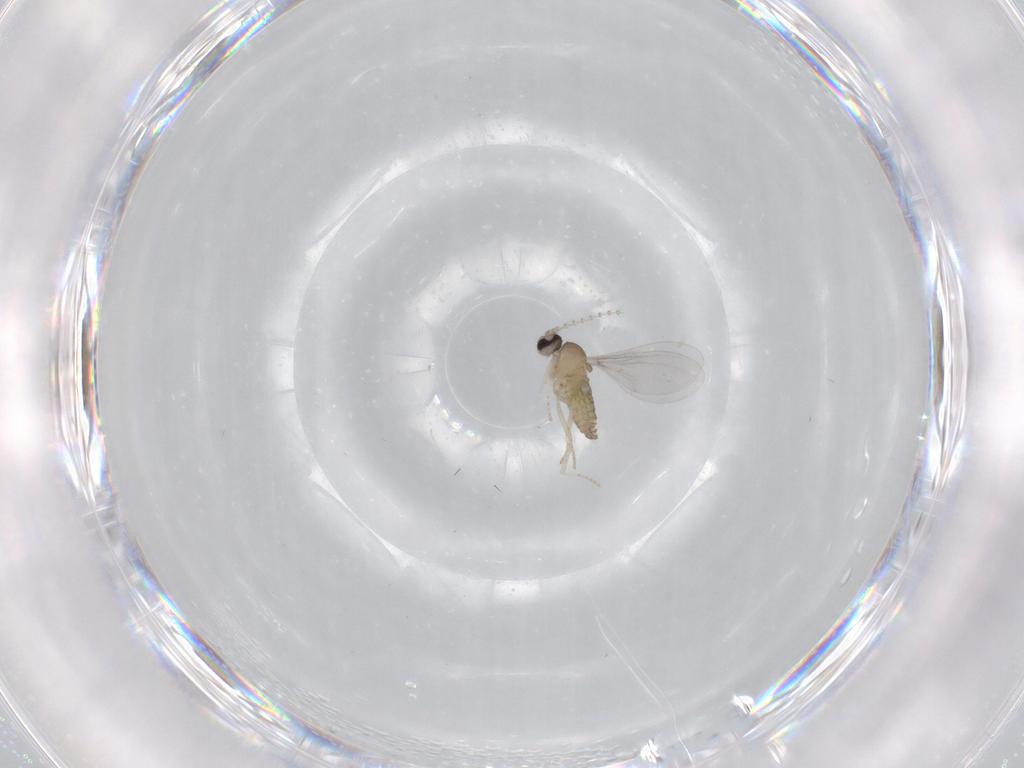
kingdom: Animalia
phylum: Arthropoda
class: Insecta
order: Diptera
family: Cecidomyiidae
